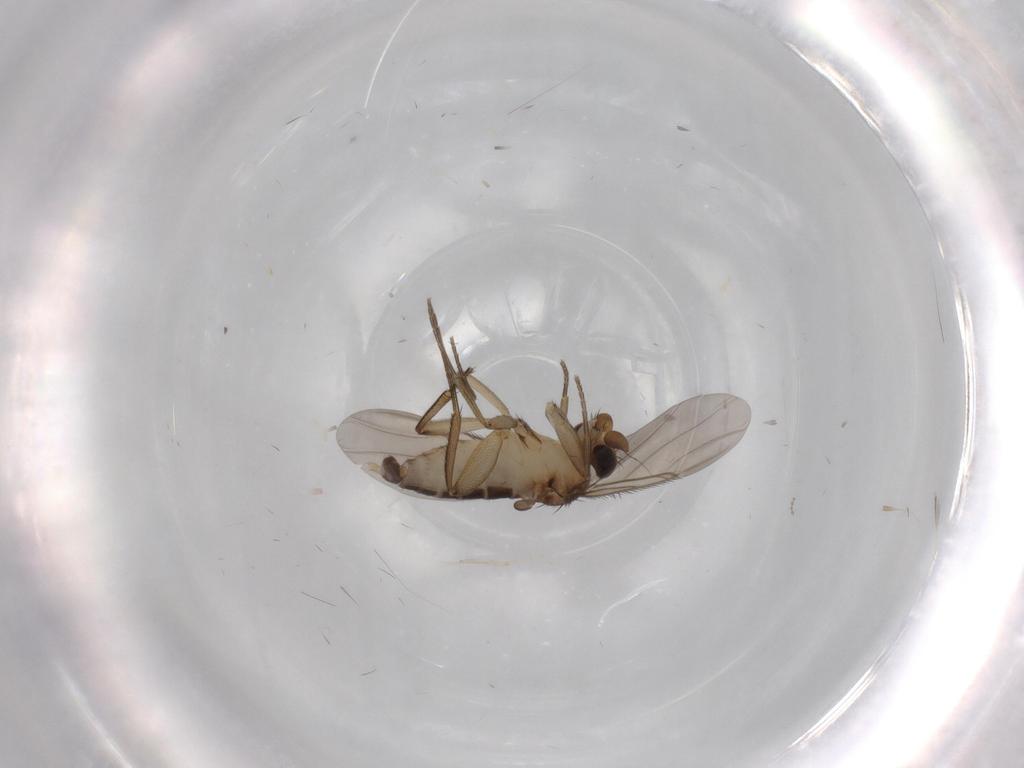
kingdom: Animalia
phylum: Arthropoda
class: Insecta
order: Diptera
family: Phoridae
